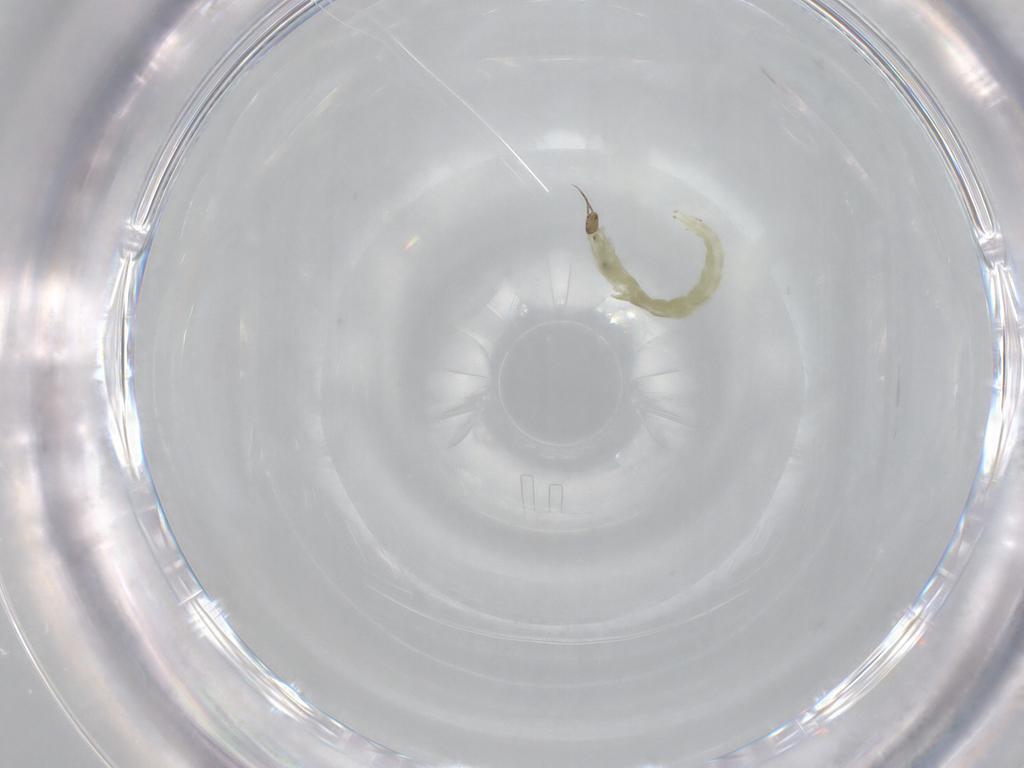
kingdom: Animalia
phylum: Arthropoda
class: Insecta
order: Diptera
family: Chironomidae
